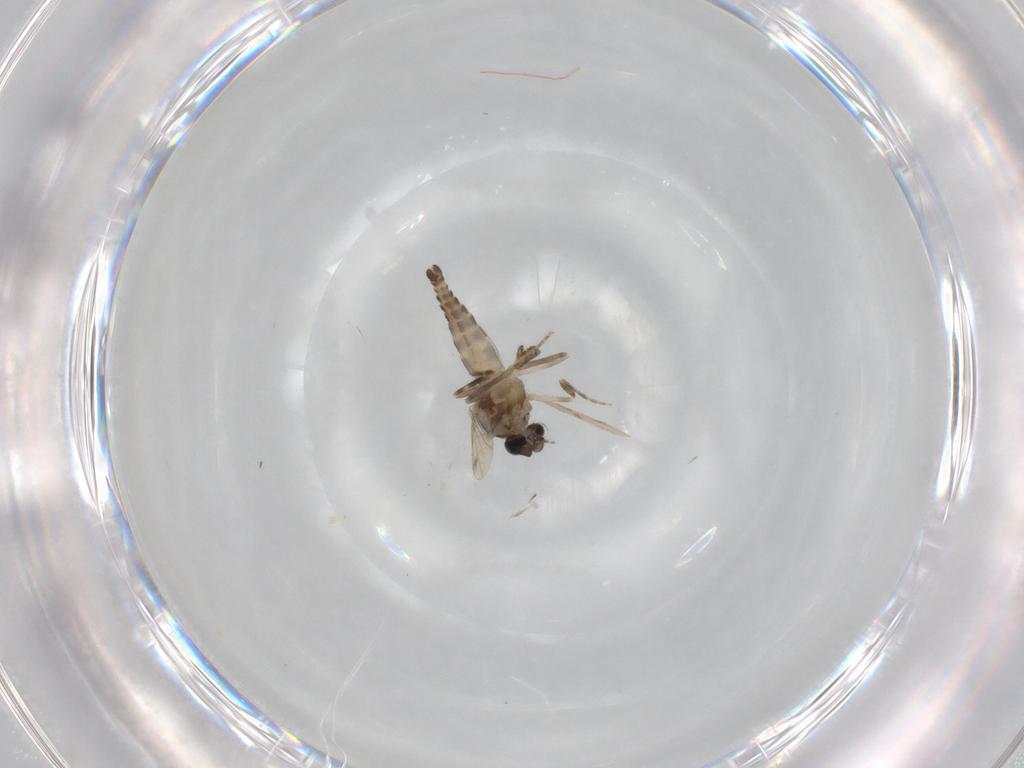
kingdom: Animalia
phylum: Arthropoda
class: Insecta
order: Diptera
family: Ceratopogonidae
